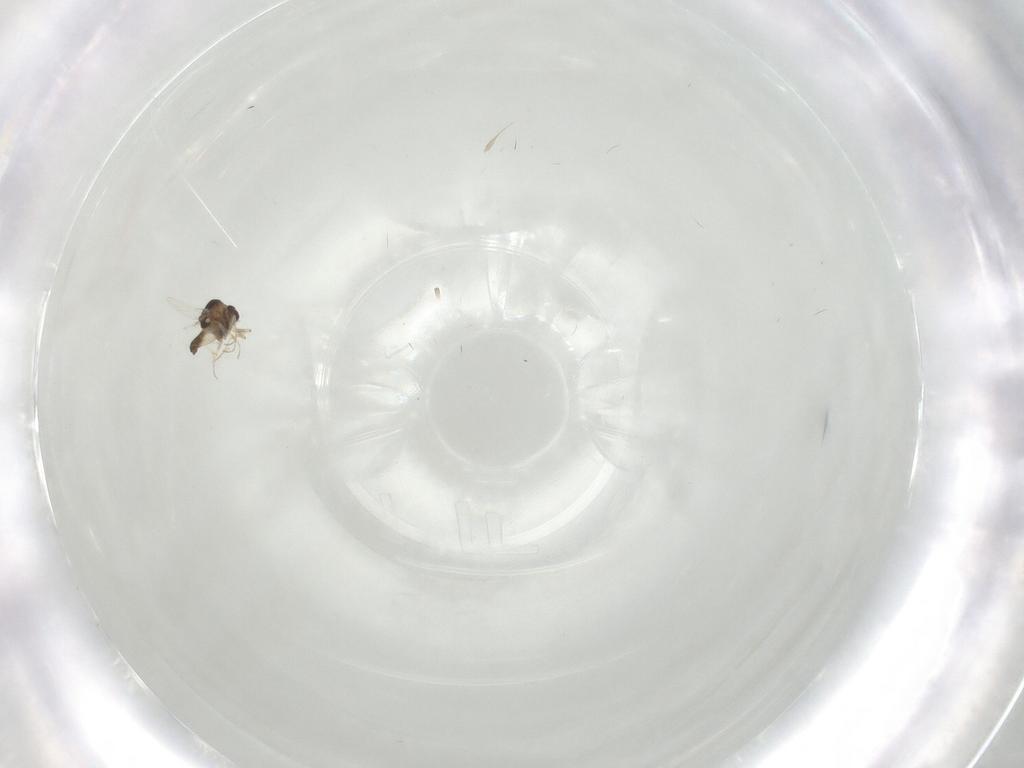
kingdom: Animalia
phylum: Arthropoda
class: Insecta
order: Diptera
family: Chironomidae
